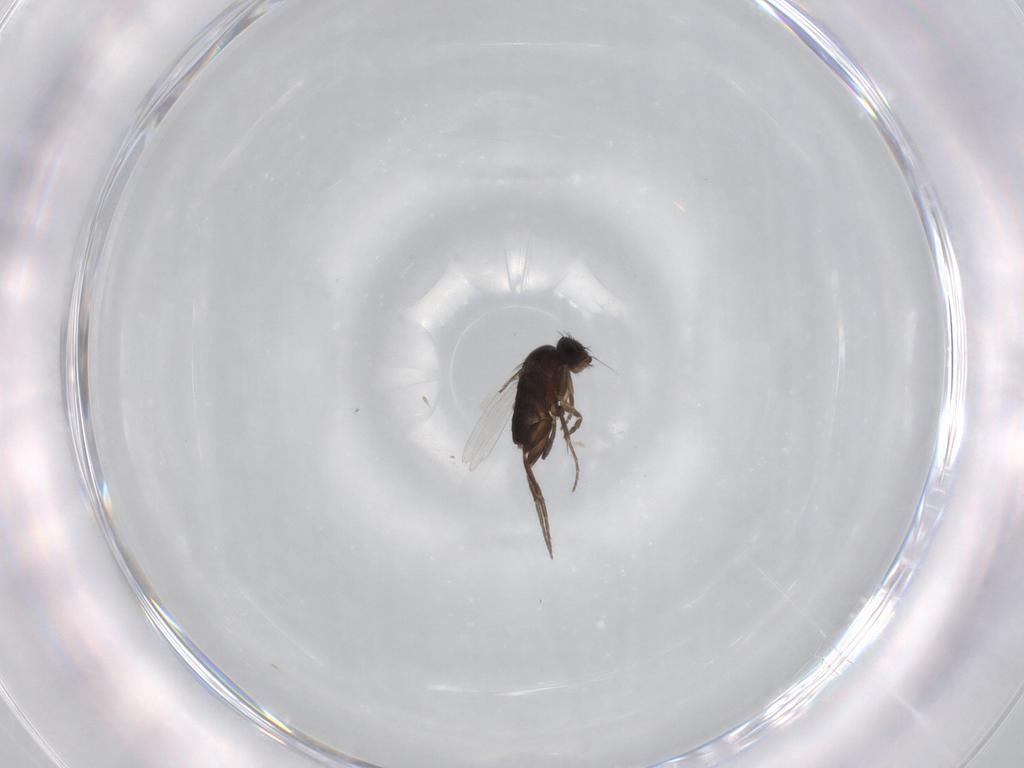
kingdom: Animalia
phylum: Arthropoda
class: Insecta
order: Diptera
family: Phoridae
